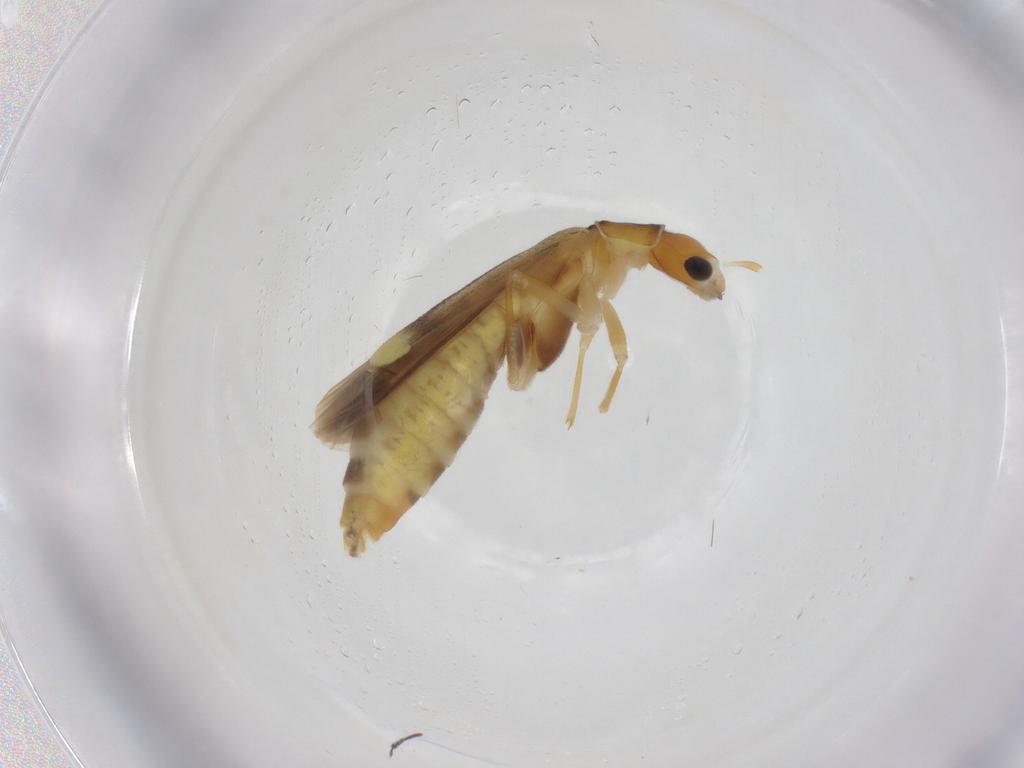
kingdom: Animalia
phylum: Arthropoda
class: Insecta
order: Coleoptera
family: Cantharidae
